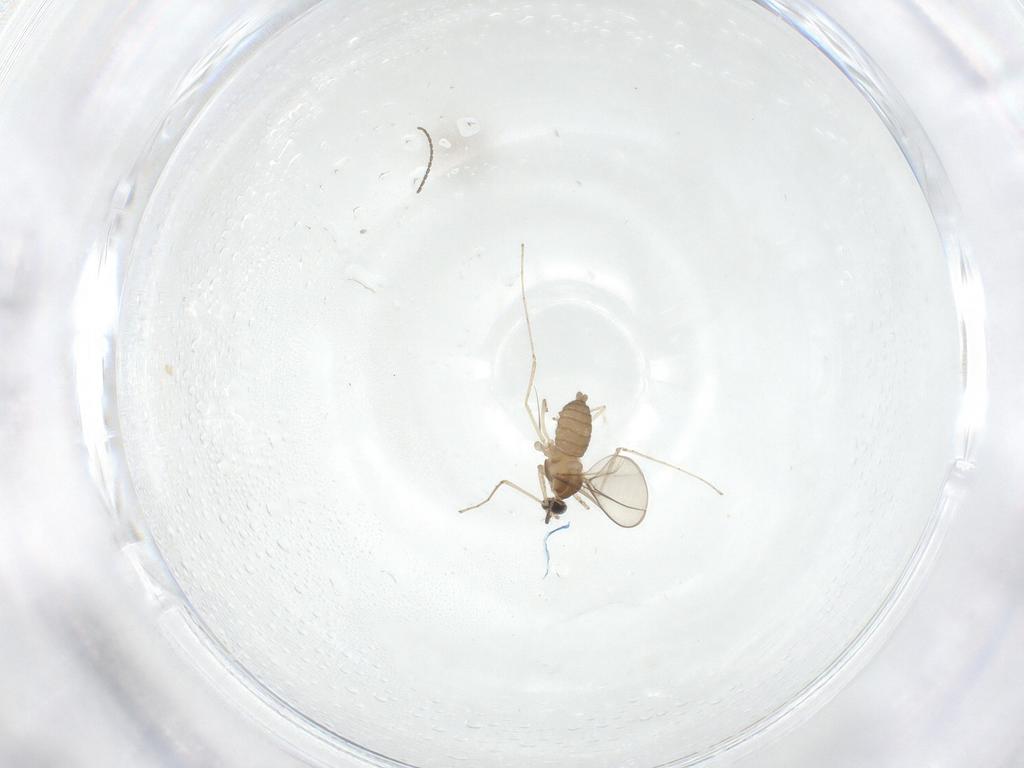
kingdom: Animalia
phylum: Arthropoda
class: Insecta
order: Diptera
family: Cecidomyiidae
